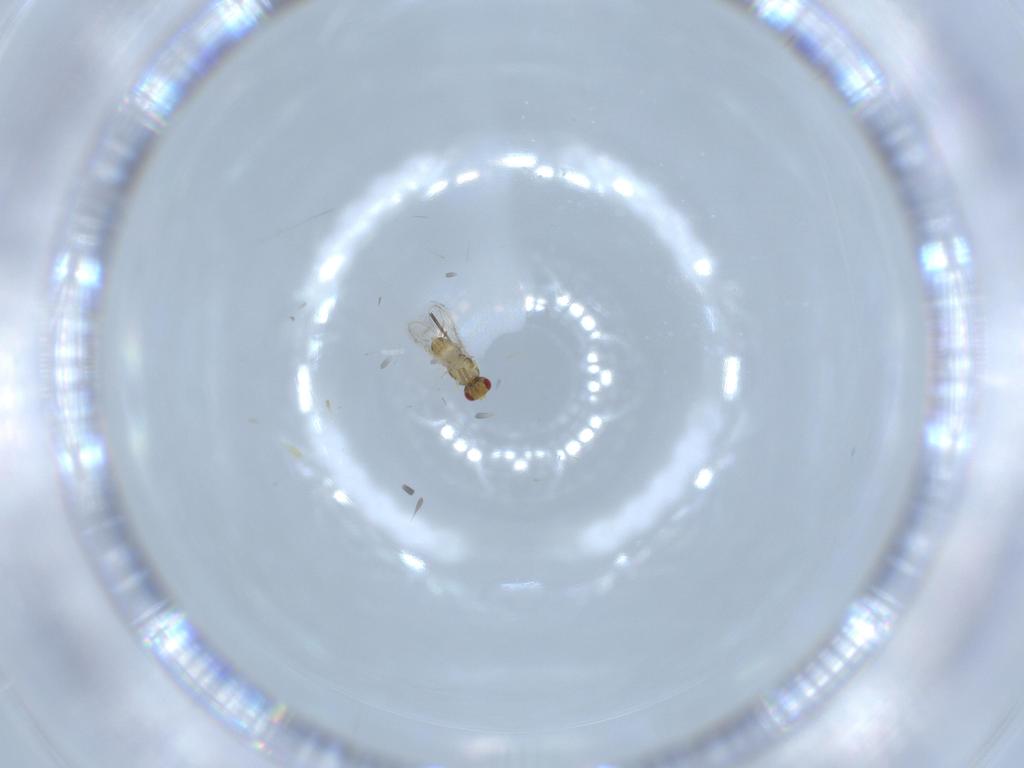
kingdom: Animalia
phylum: Arthropoda
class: Insecta
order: Hymenoptera
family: Aphelinidae
